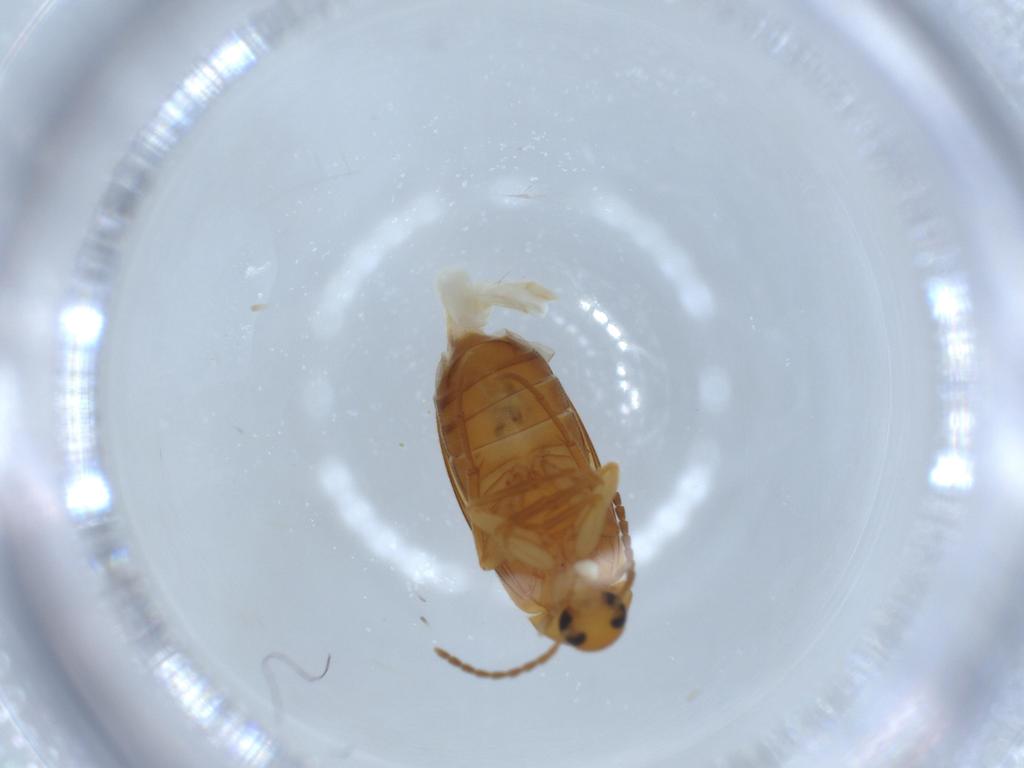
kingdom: Animalia
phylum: Arthropoda
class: Insecta
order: Coleoptera
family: Scraptiidae
